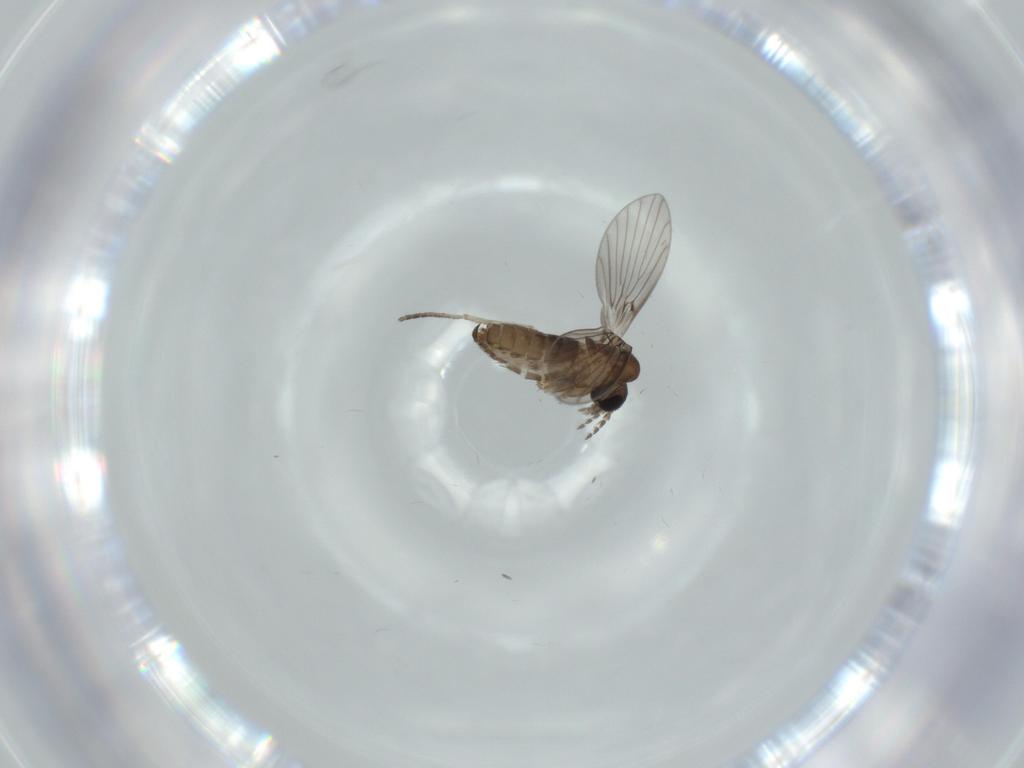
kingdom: Animalia
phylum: Arthropoda
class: Insecta
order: Diptera
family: Psychodidae
